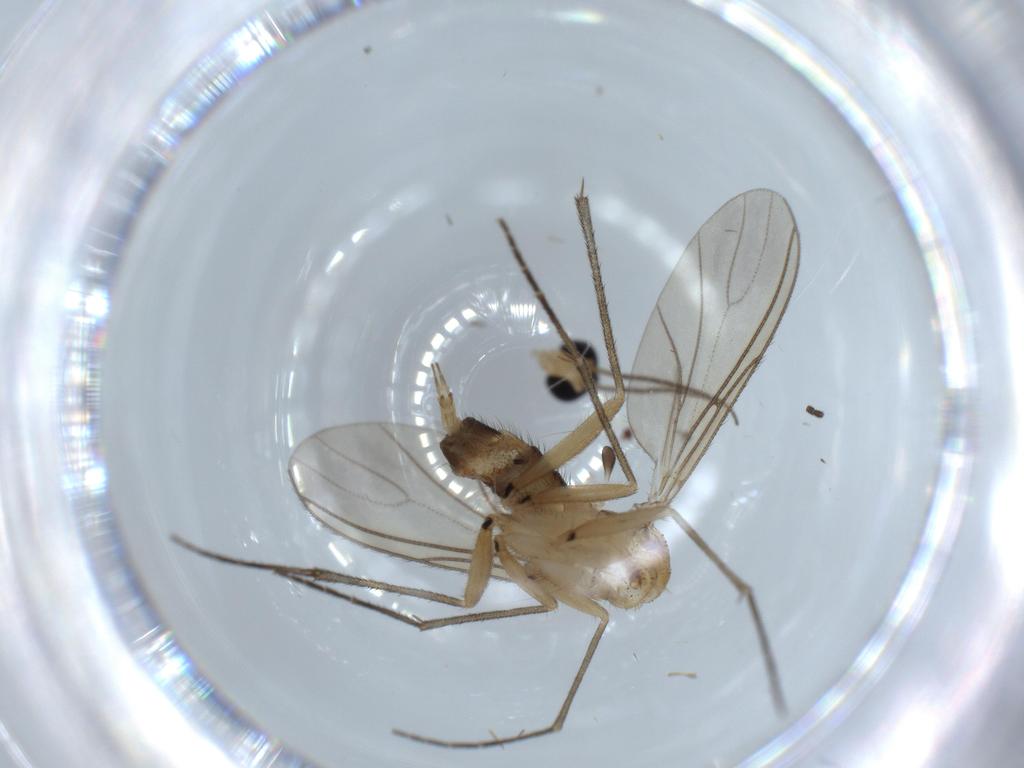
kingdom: Animalia
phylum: Arthropoda
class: Insecta
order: Diptera
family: Sciaridae
